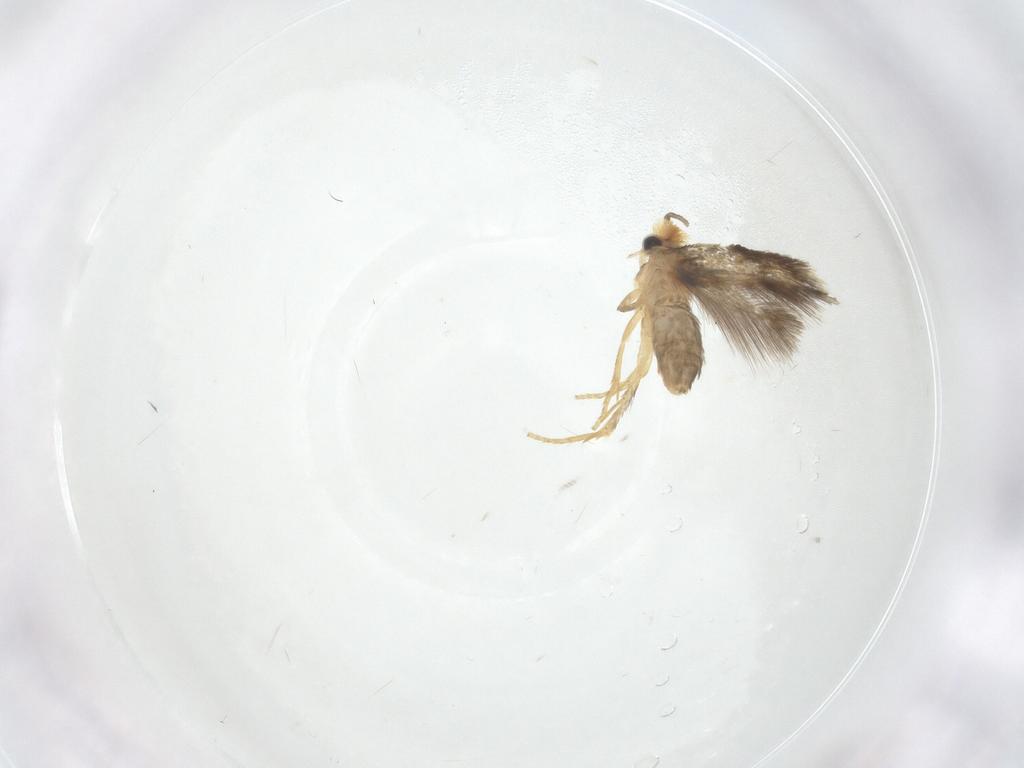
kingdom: Animalia
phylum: Arthropoda
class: Insecta
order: Lepidoptera
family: Nepticulidae
